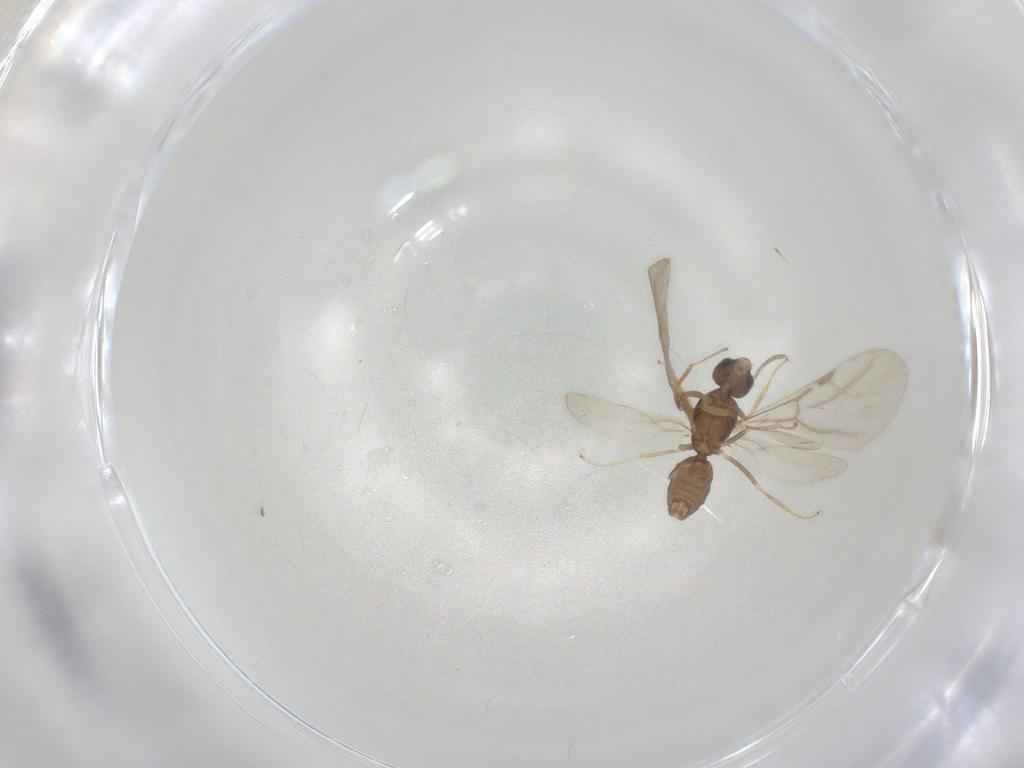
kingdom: Animalia
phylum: Arthropoda
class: Insecta
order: Hymenoptera
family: Formicidae
